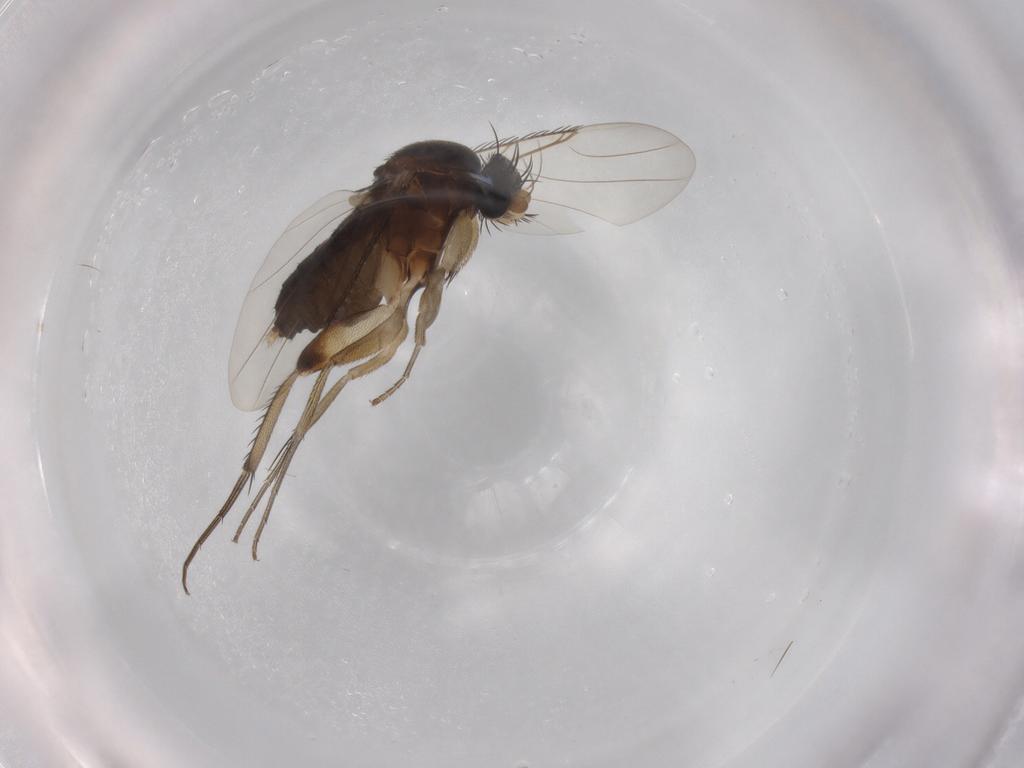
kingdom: Animalia
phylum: Arthropoda
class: Insecta
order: Diptera
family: Phoridae
